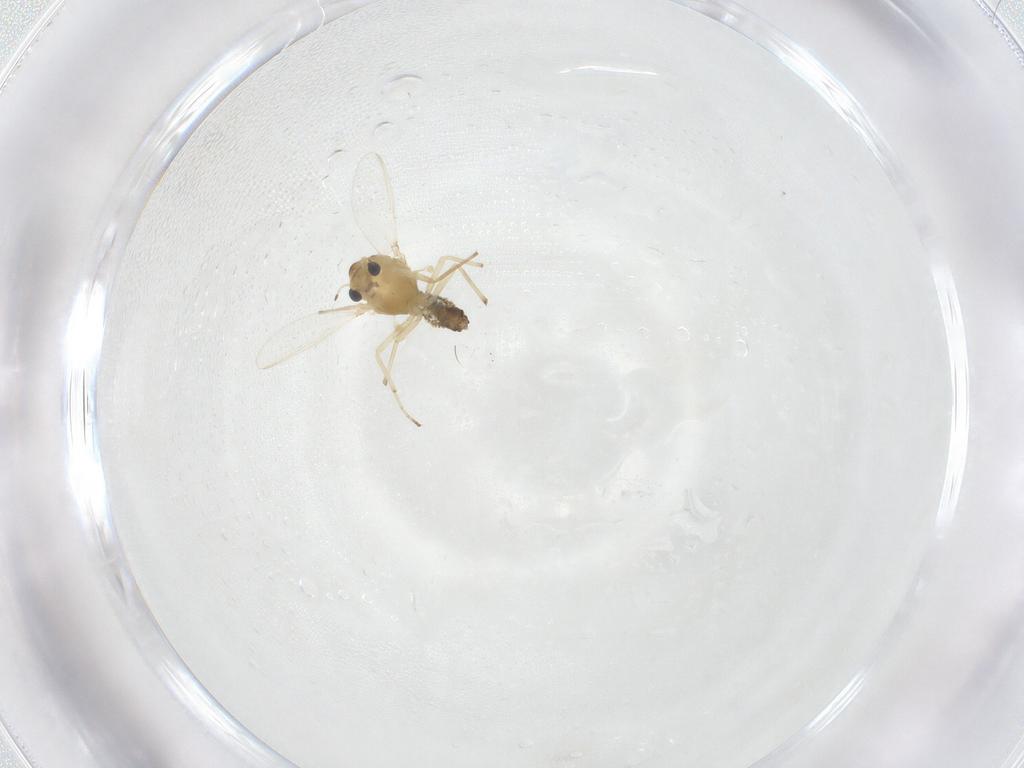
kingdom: Animalia
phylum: Arthropoda
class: Insecta
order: Diptera
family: Chironomidae
